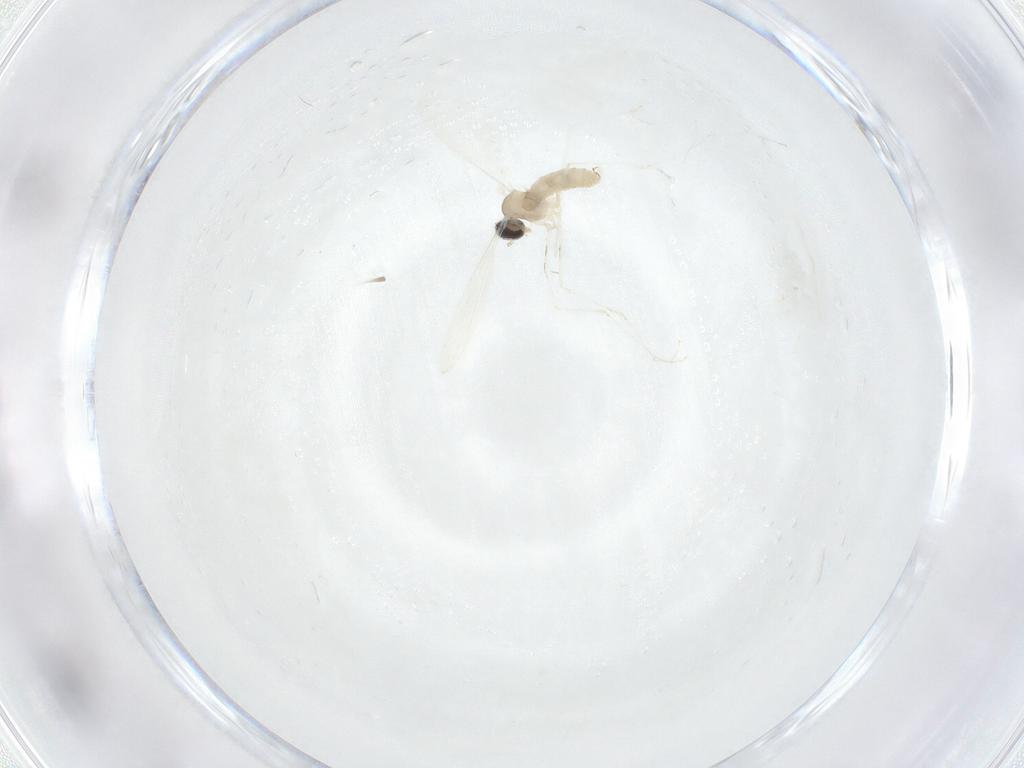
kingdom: Animalia
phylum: Arthropoda
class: Insecta
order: Diptera
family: Cecidomyiidae
